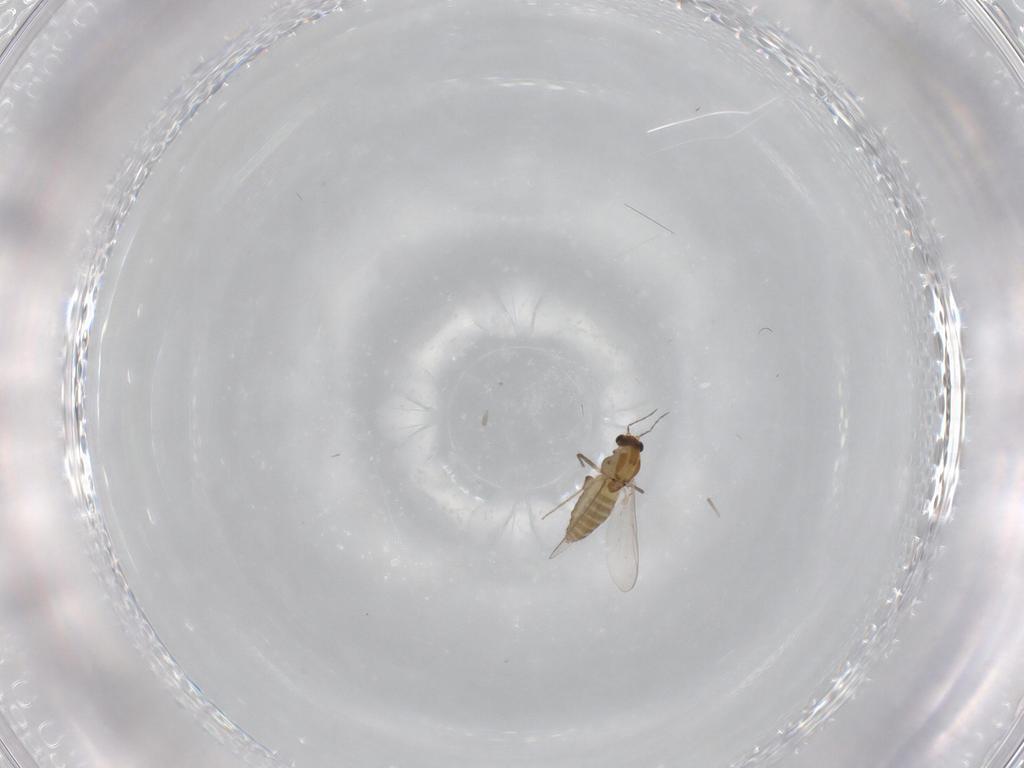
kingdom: Animalia
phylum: Arthropoda
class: Insecta
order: Diptera
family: Chironomidae
